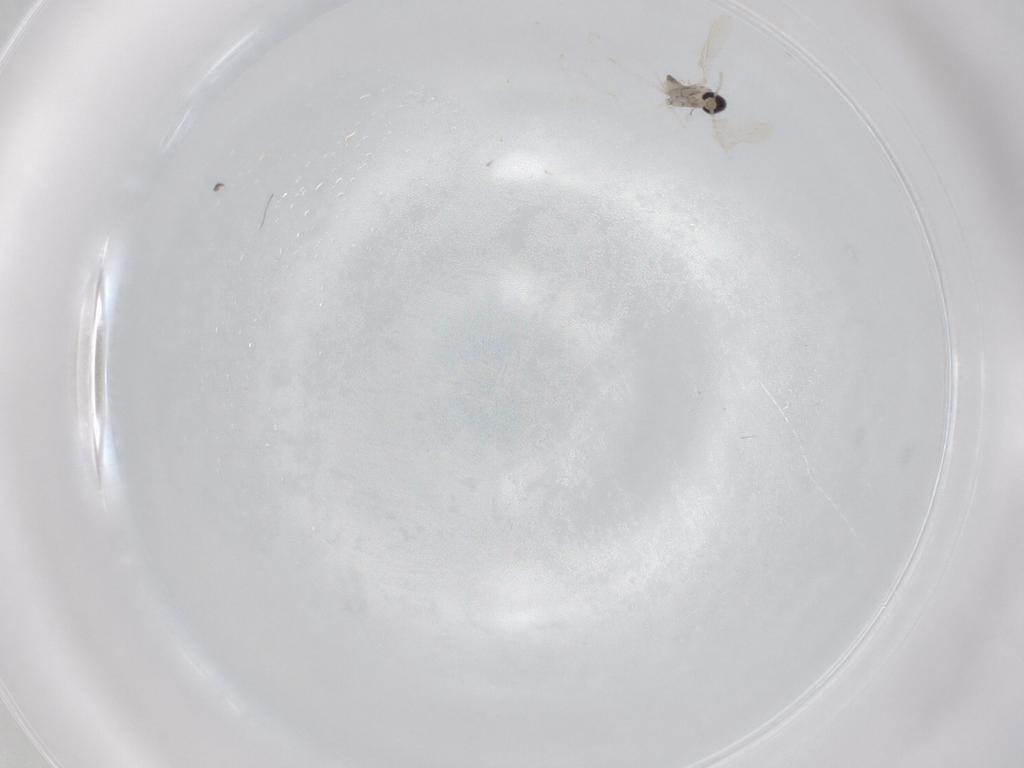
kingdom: Animalia
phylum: Arthropoda
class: Insecta
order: Diptera
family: Cecidomyiidae
